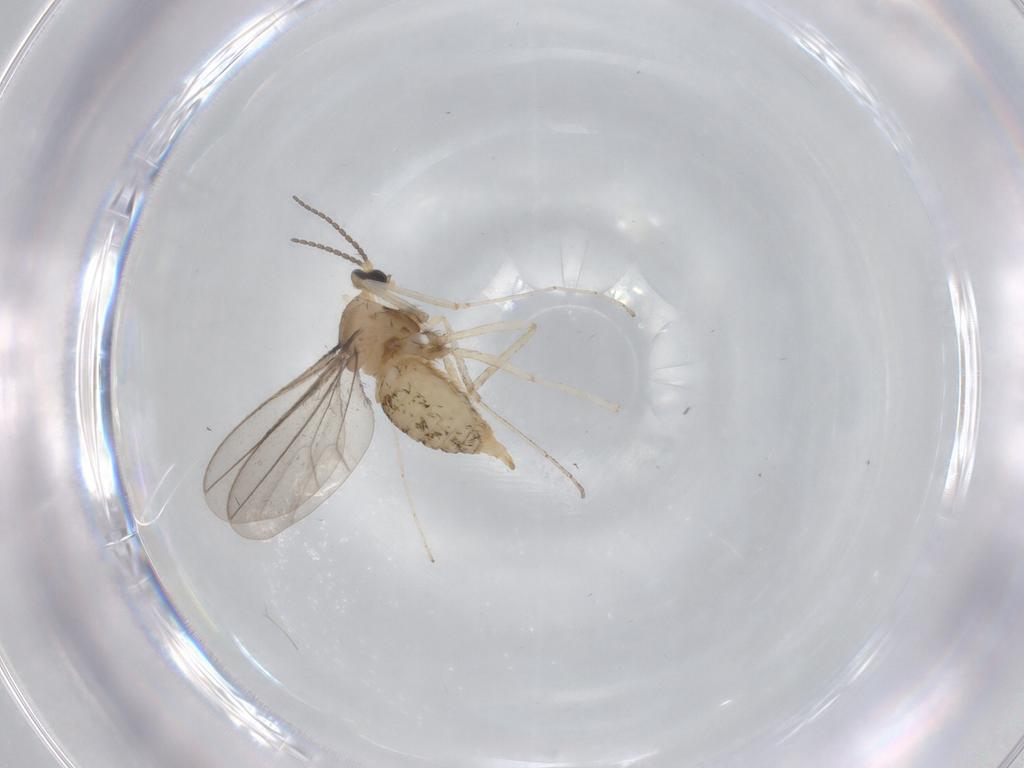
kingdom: Animalia
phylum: Arthropoda
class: Insecta
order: Diptera
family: Cecidomyiidae
